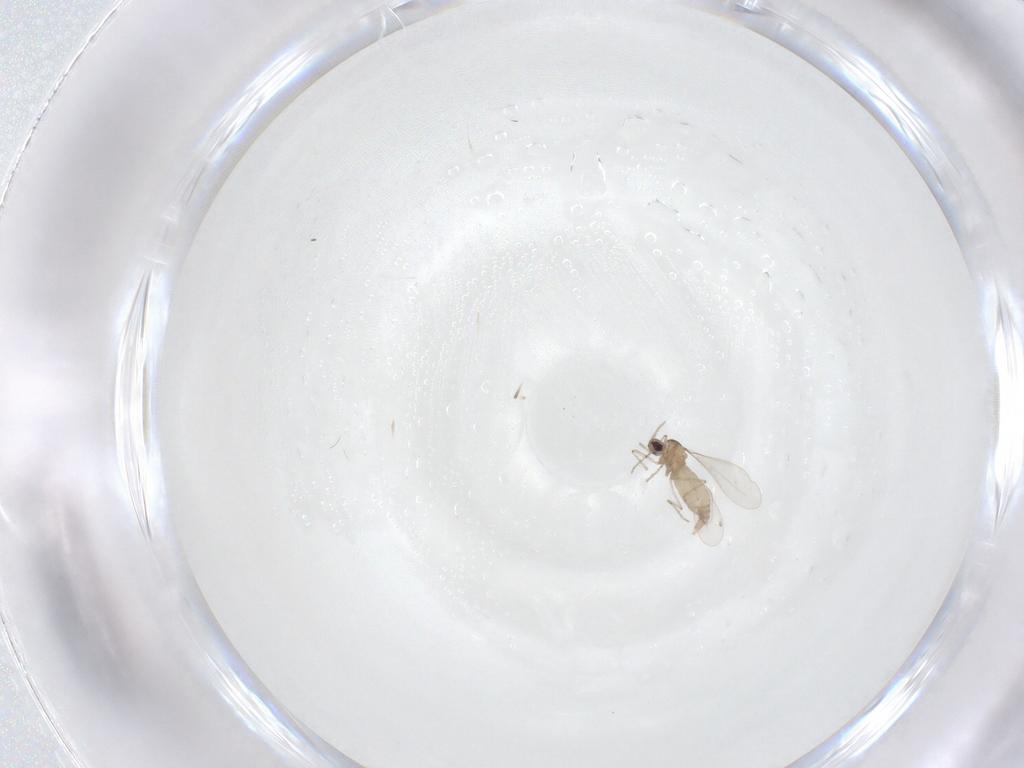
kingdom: Animalia
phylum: Arthropoda
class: Insecta
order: Diptera
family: Cecidomyiidae
